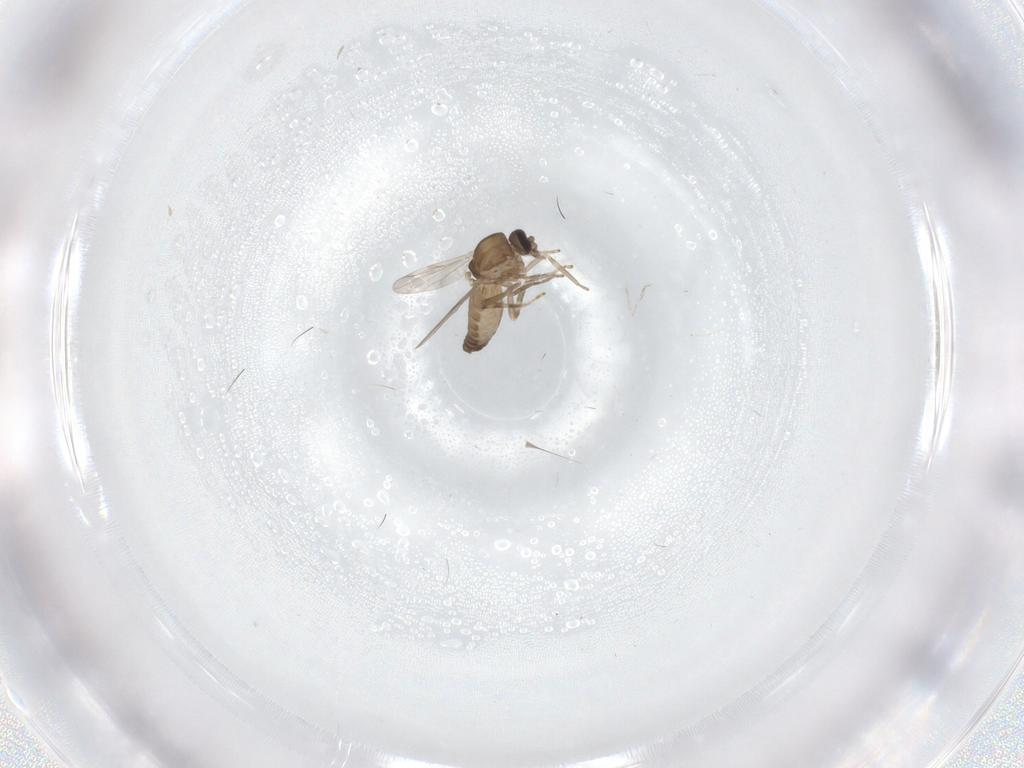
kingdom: Animalia
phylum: Arthropoda
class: Insecta
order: Diptera
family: Ceratopogonidae
